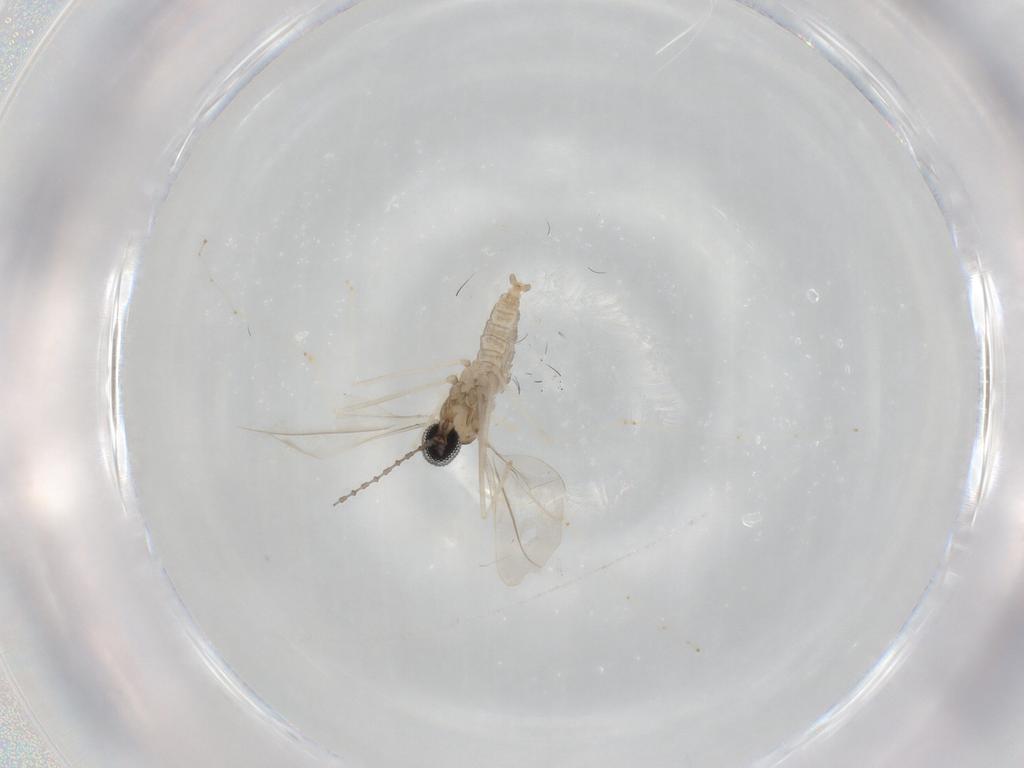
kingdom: Animalia
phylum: Arthropoda
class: Insecta
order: Diptera
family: Cecidomyiidae
